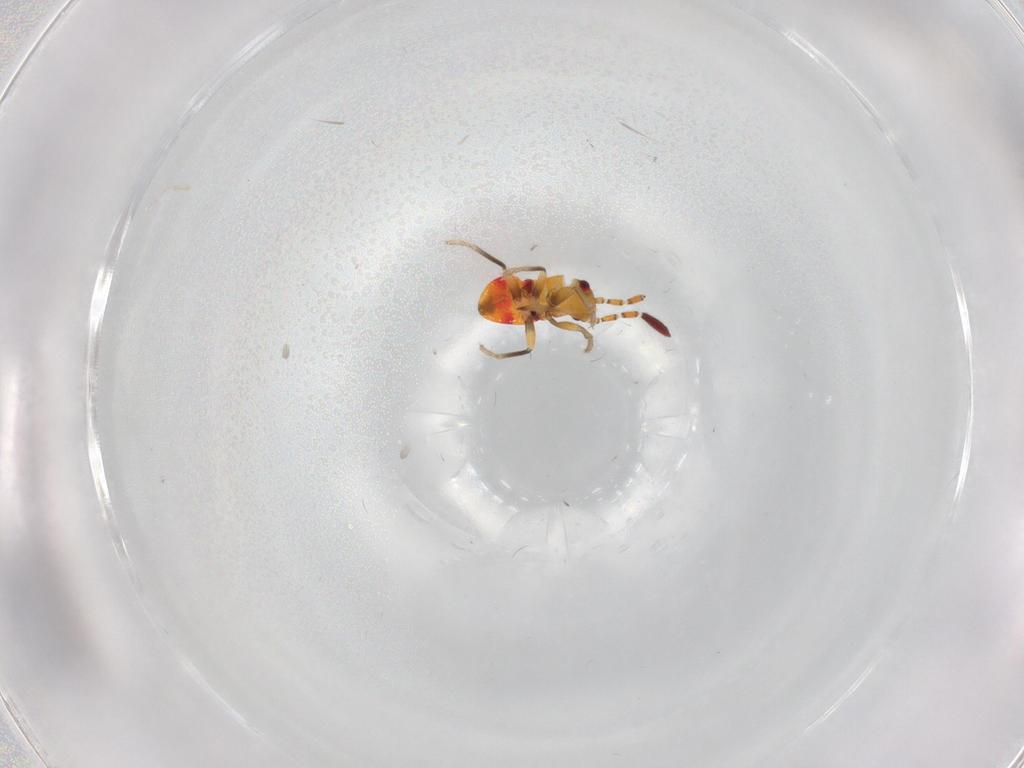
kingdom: Animalia
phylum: Arthropoda
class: Insecta
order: Hemiptera
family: Rhyparochromidae
